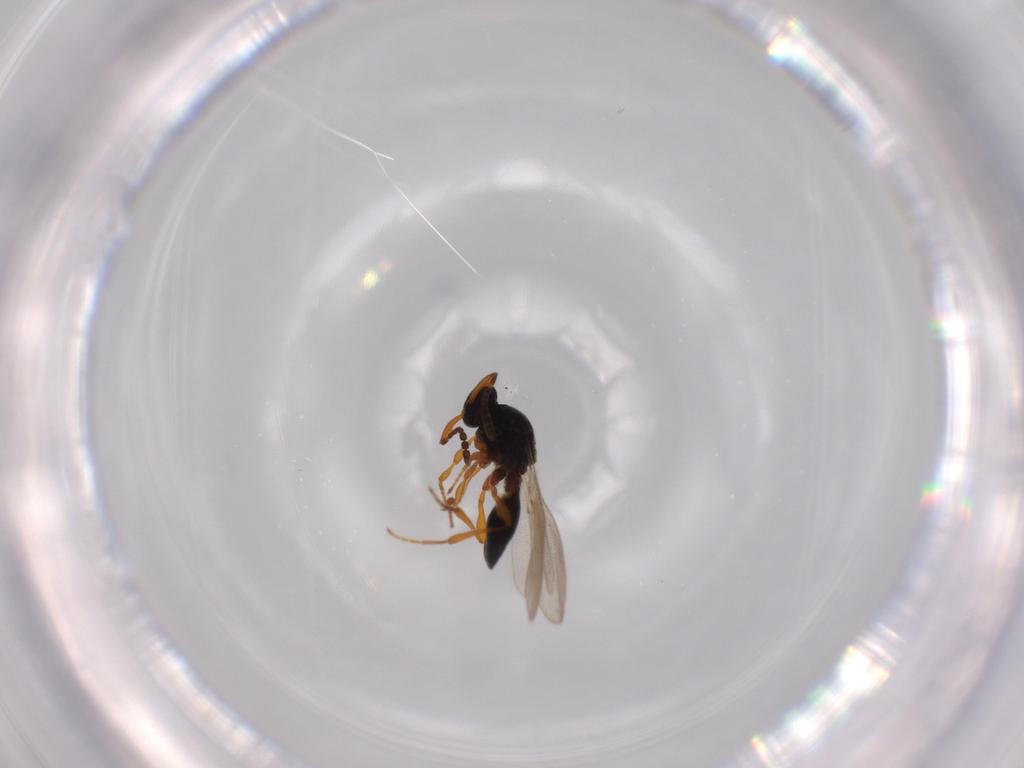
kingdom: Animalia
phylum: Arthropoda
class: Insecta
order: Hymenoptera
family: Platygastridae
